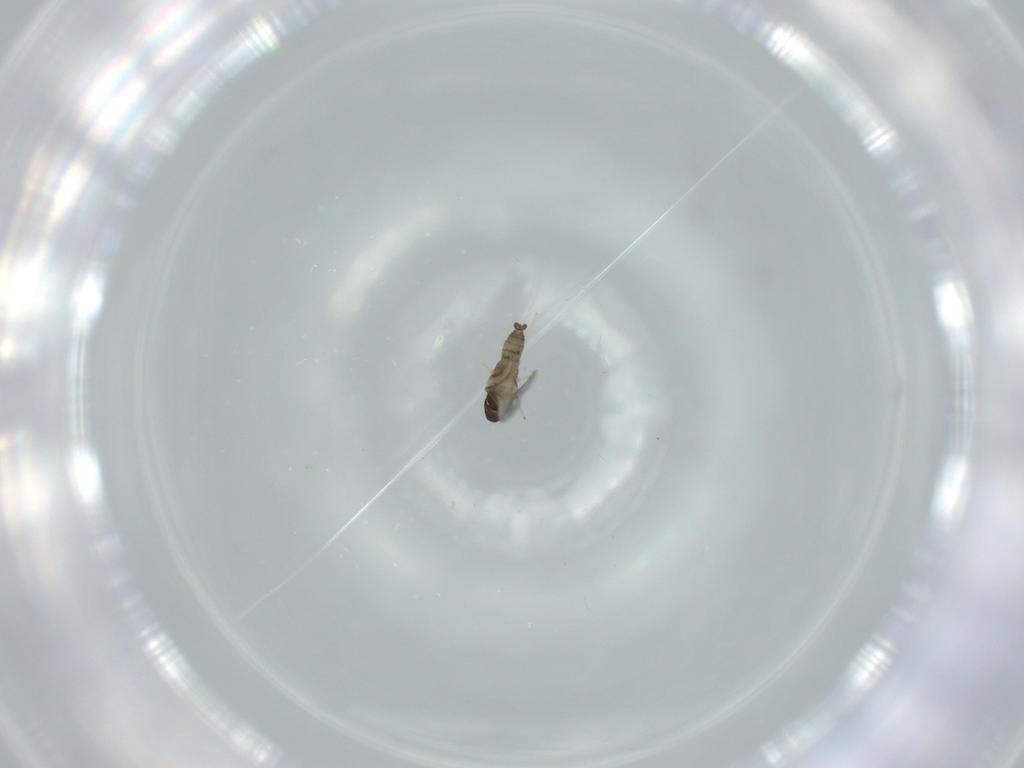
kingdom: Animalia
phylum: Arthropoda
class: Insecta
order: Diptera
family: Cecidomyiidae
